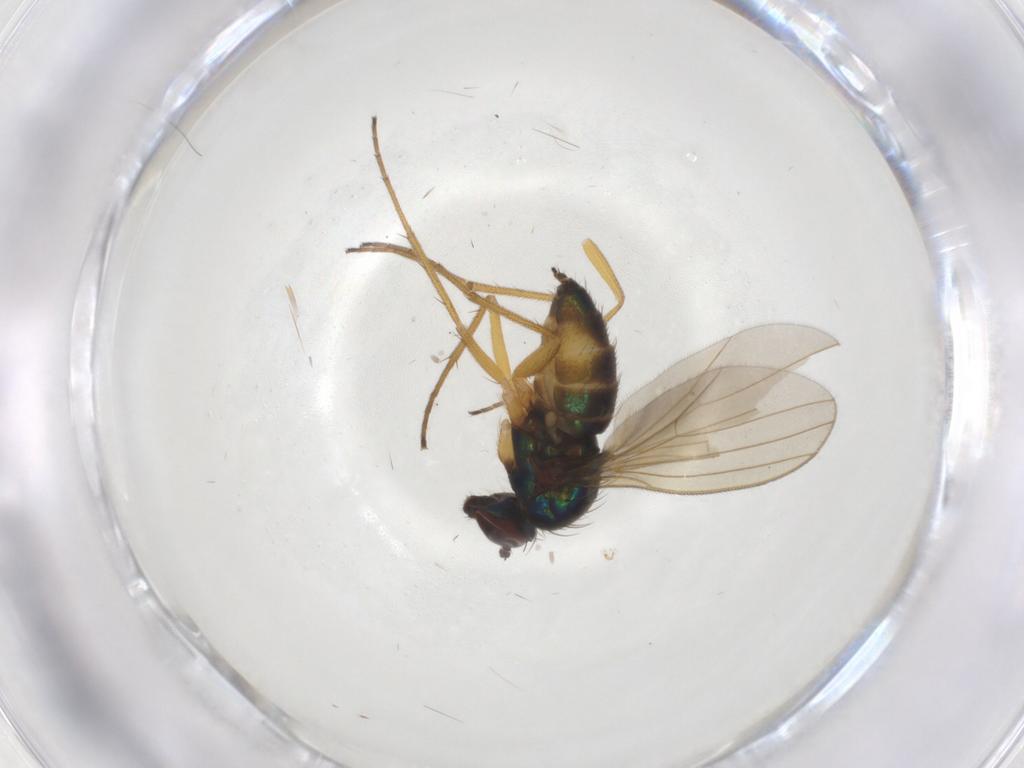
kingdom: Animalia
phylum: Arthropoda
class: Insecta
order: Diptera
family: Dolichopodidae
